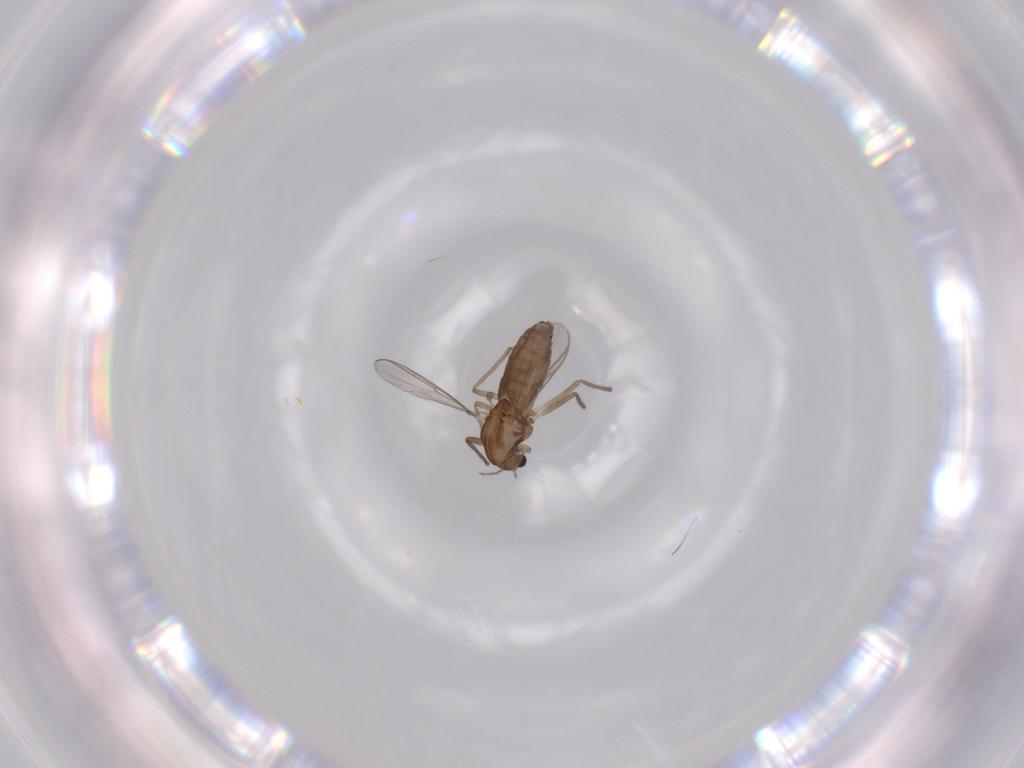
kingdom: Animalia
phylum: Arthropoda
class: Insecta
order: Diptera
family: Chironomidae
